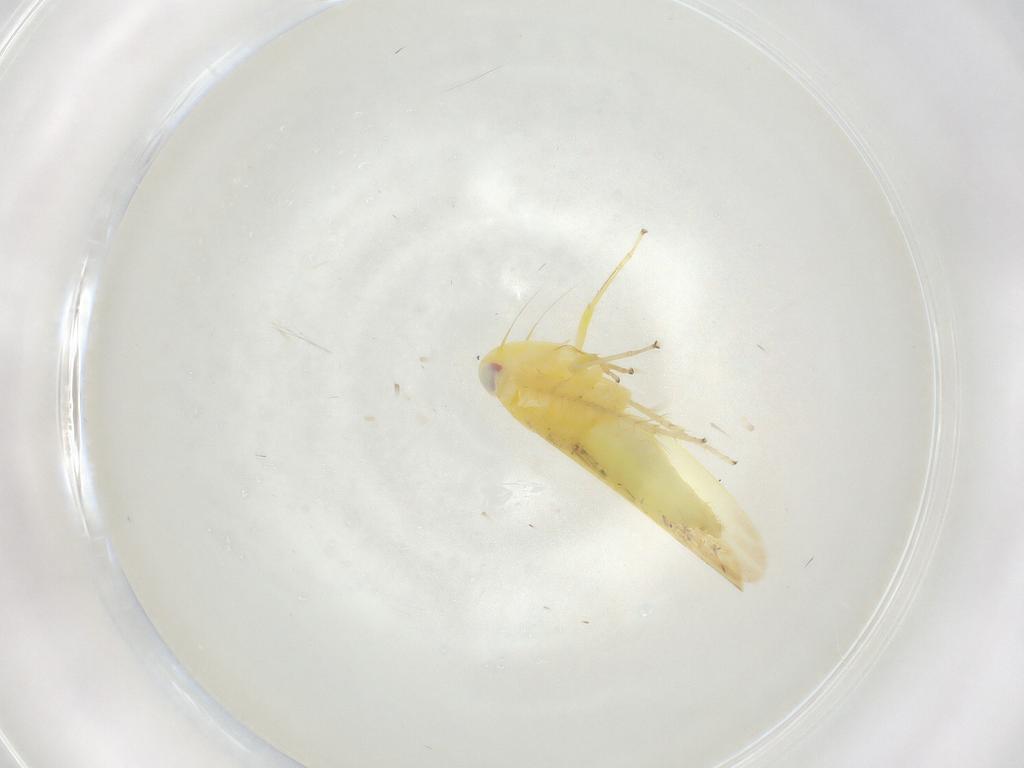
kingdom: Animalia
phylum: Arthropoda
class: Insecta
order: Hemiptera
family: Cicadellidae
